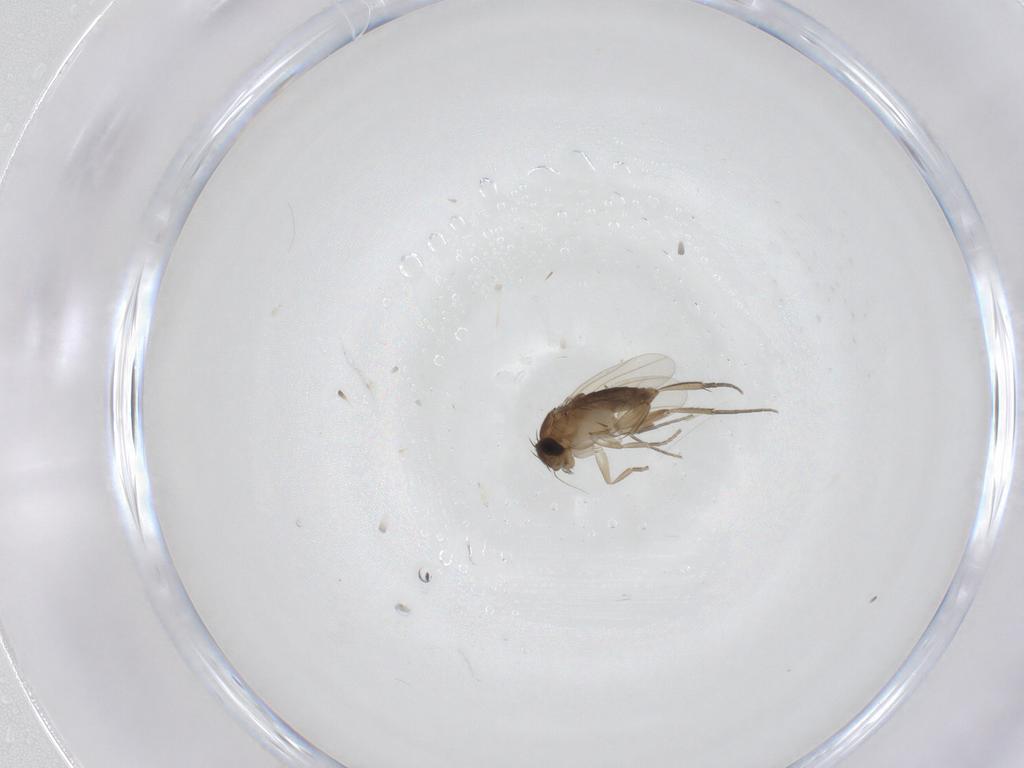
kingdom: Animalia
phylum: Arthropoda
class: Insecta
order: Diptera
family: Phoridae
